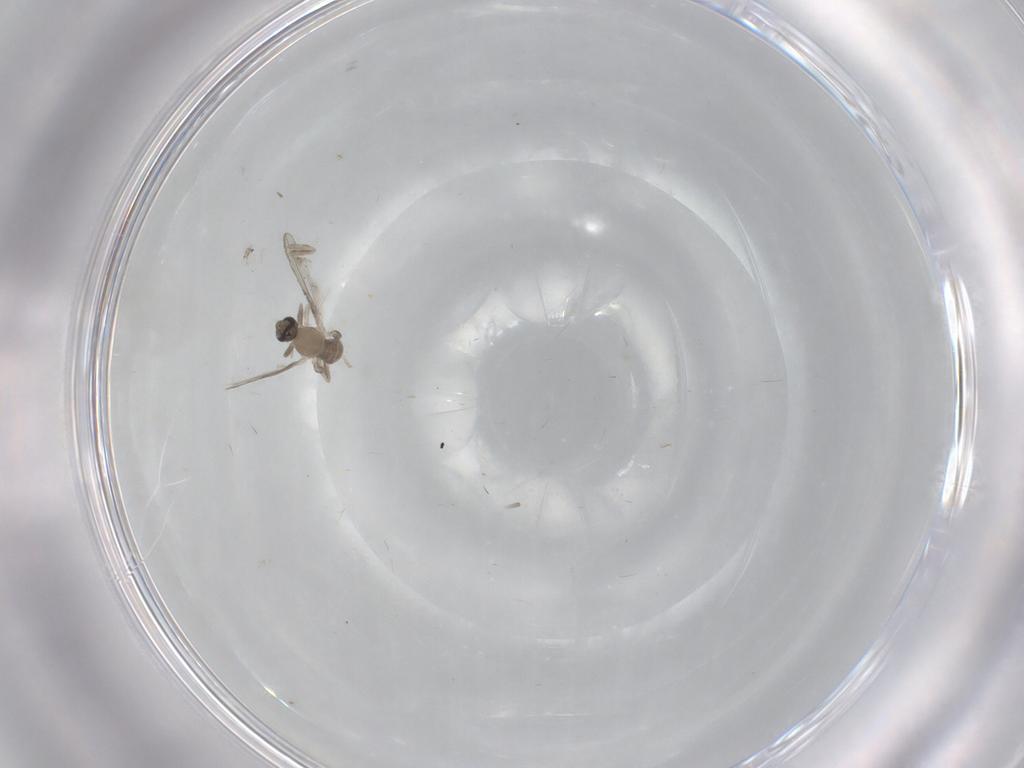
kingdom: Animalia
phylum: Arthropoda
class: Insecta
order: Diptera
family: Cecidomyiidae
